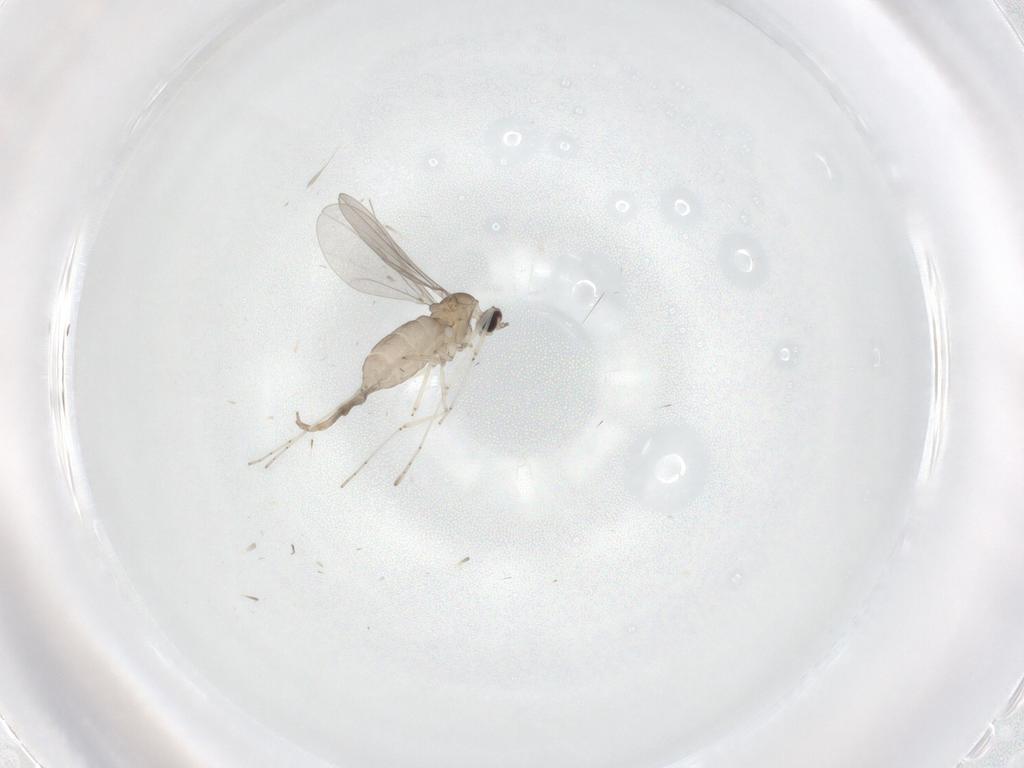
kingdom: Animalia
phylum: Arthropoda
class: Insecta
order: Diptera
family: Cecidomyiidae
